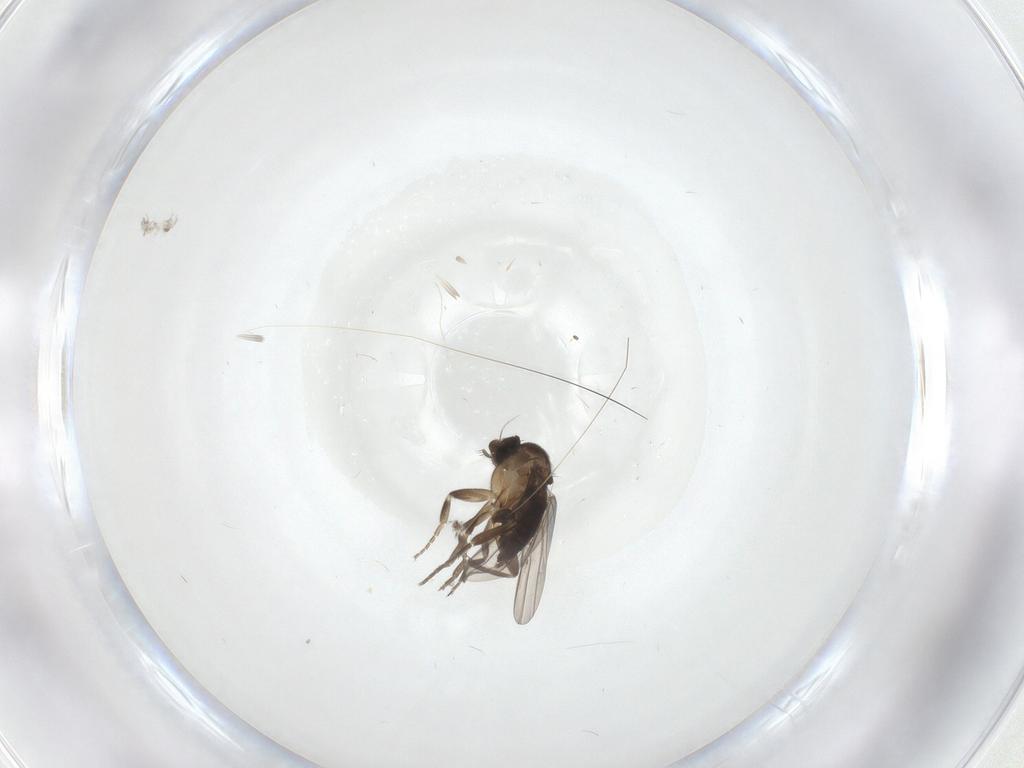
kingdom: Animalia
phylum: Arthropoda
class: Insecta
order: Diptera
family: Cecidomyiidae
